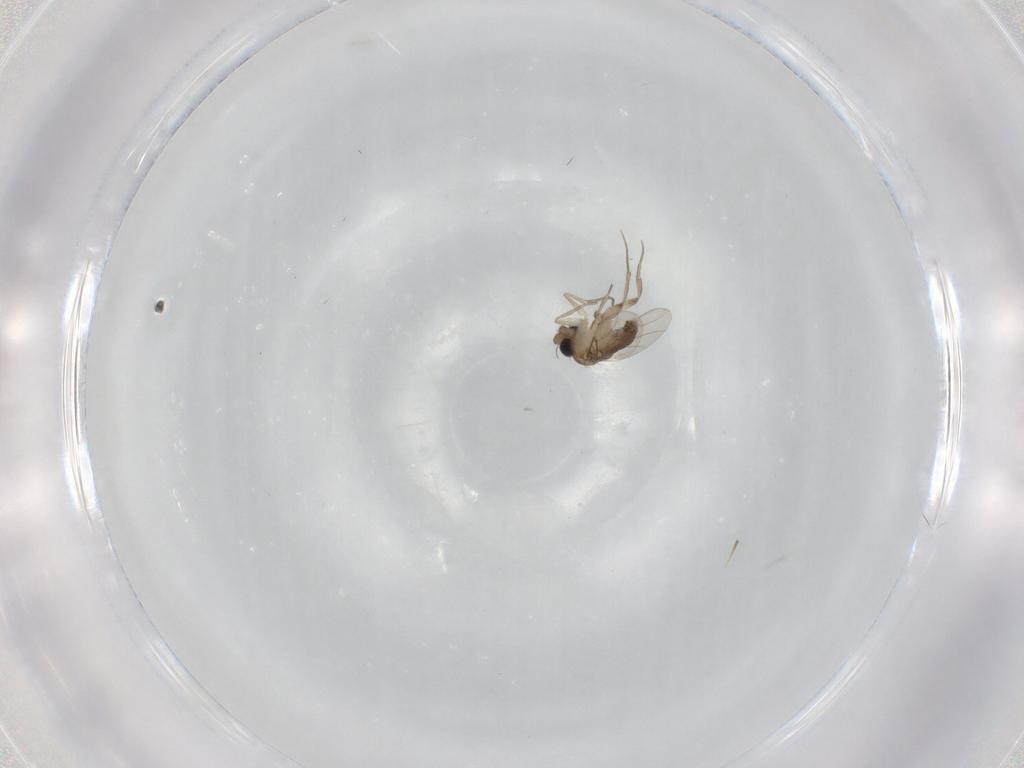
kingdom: Animalia
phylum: Arthropoda
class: Insecta
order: Diptera
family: Phoridae
